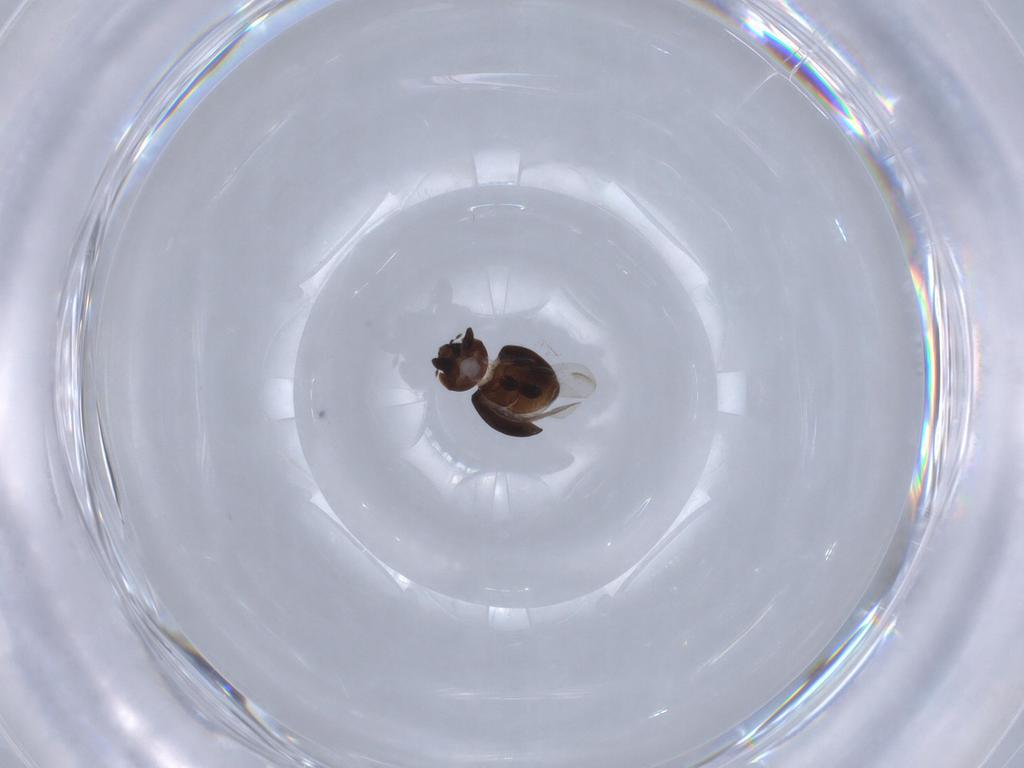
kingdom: Animalia
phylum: Arthropoda
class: Insecta
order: Coleoptera
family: Coccinellidae
